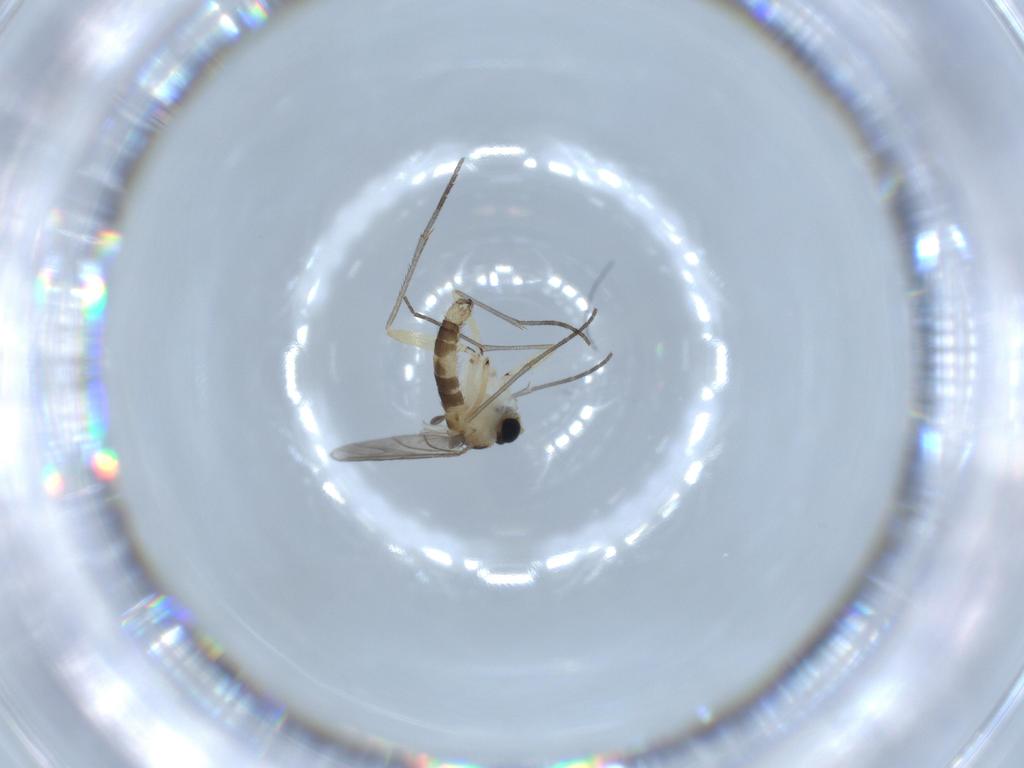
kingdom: Animalia
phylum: Arthropoda
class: Insecta
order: Diptera
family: Sciaridae
